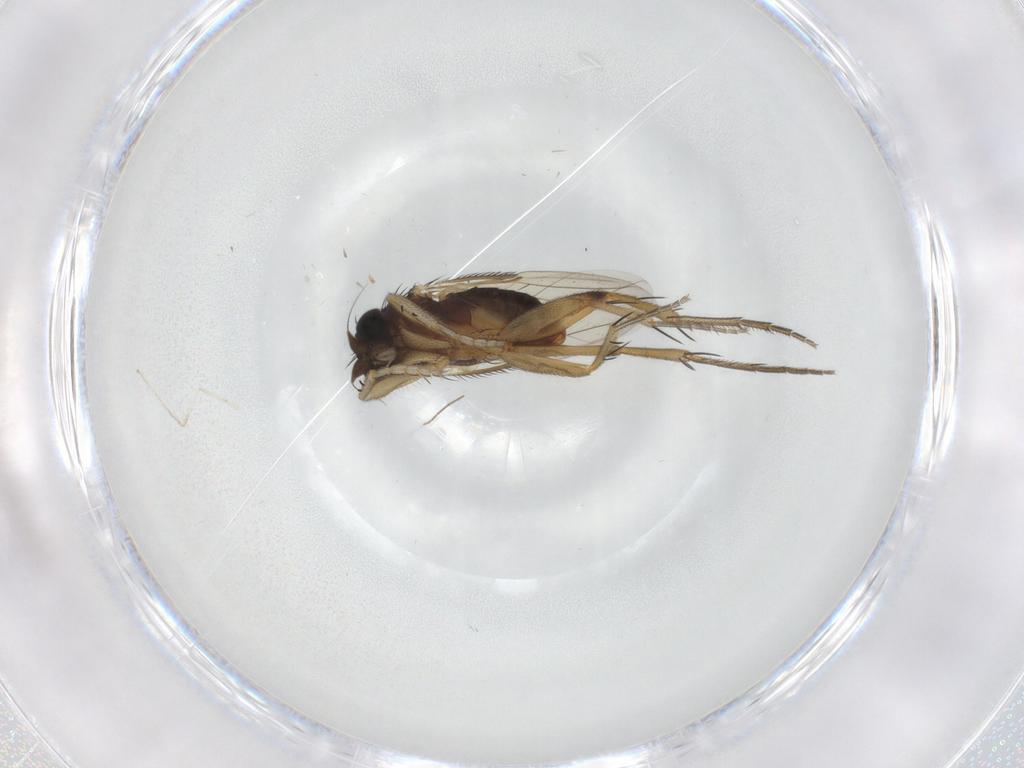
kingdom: Animalia
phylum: Arthropoda
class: Insecta
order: Diptera
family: Phoridae
